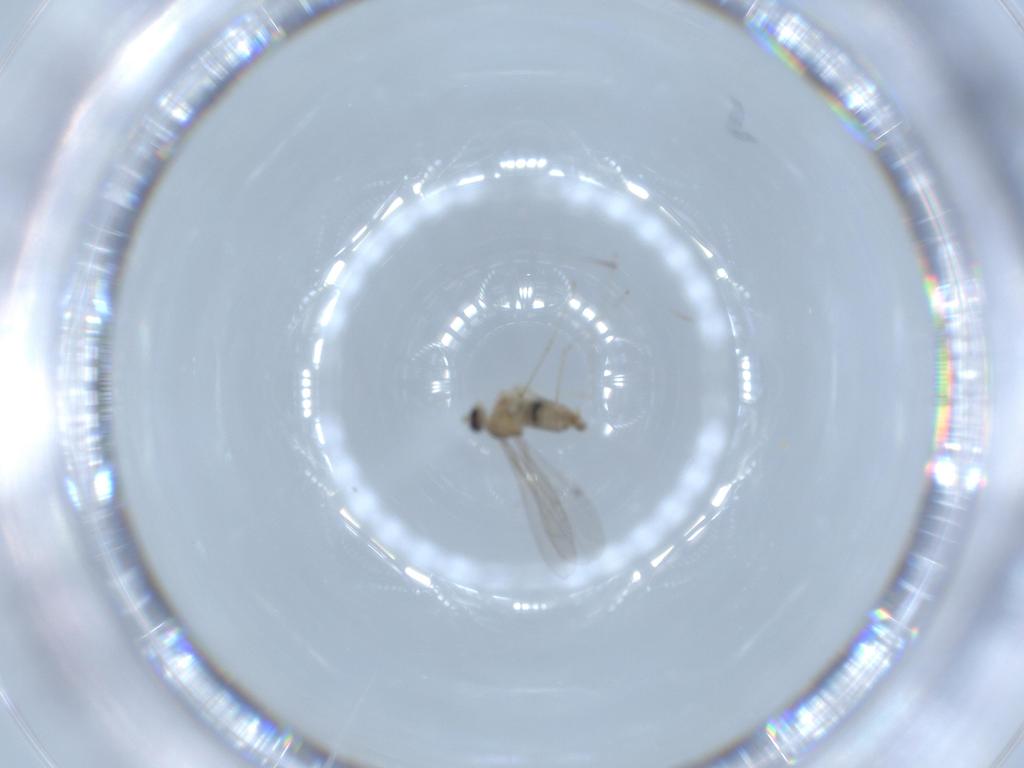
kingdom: Animalia
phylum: Arthropoda
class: Insecta
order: Diptera
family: Cecidomyiidae
